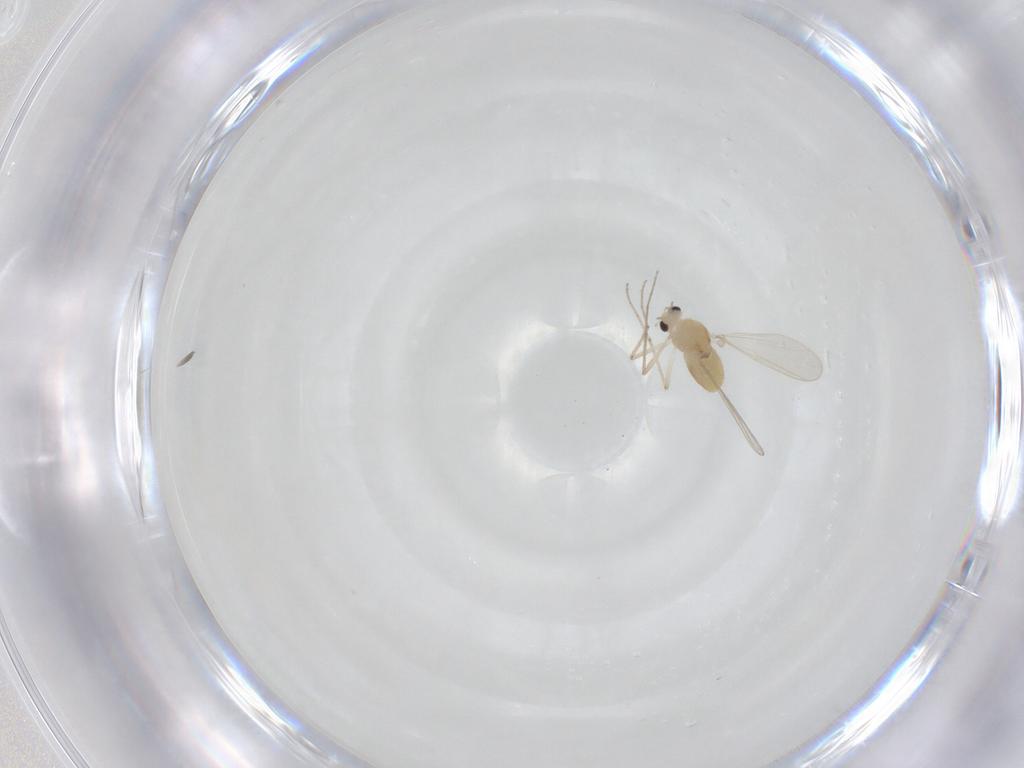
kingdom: Animalia
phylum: Arthropoda
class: Insecta
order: Diptera
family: Chironomidae
